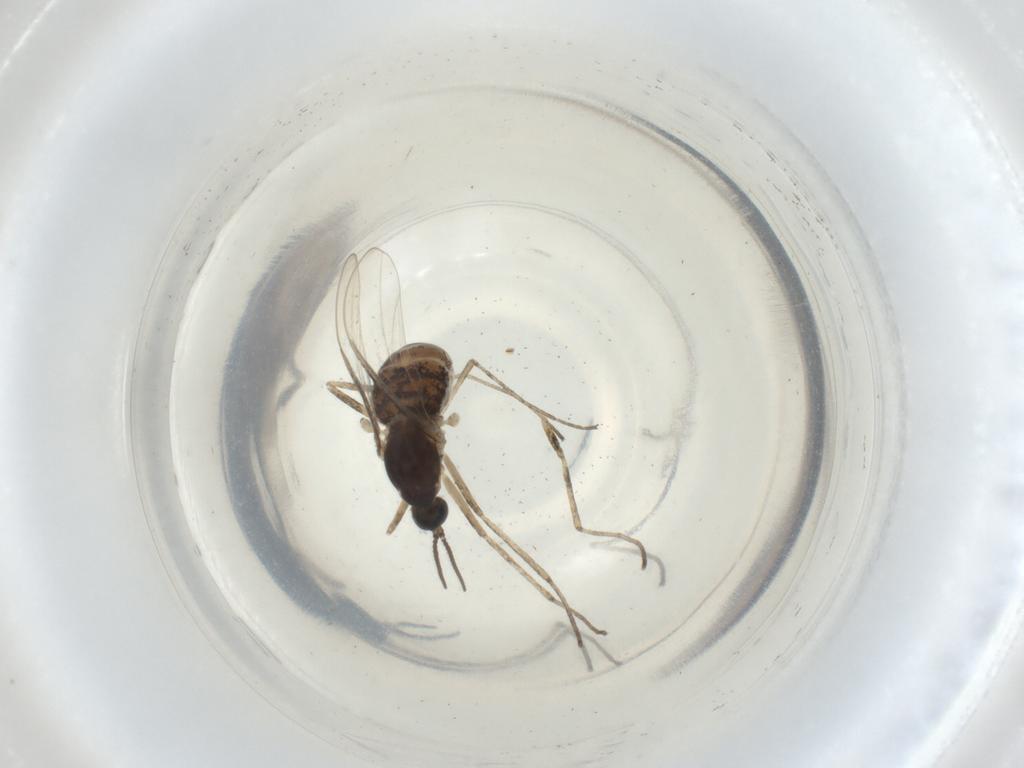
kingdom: Animalia
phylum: Arthropoda
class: Insecta
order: Diptera
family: Cecidomyiidae
